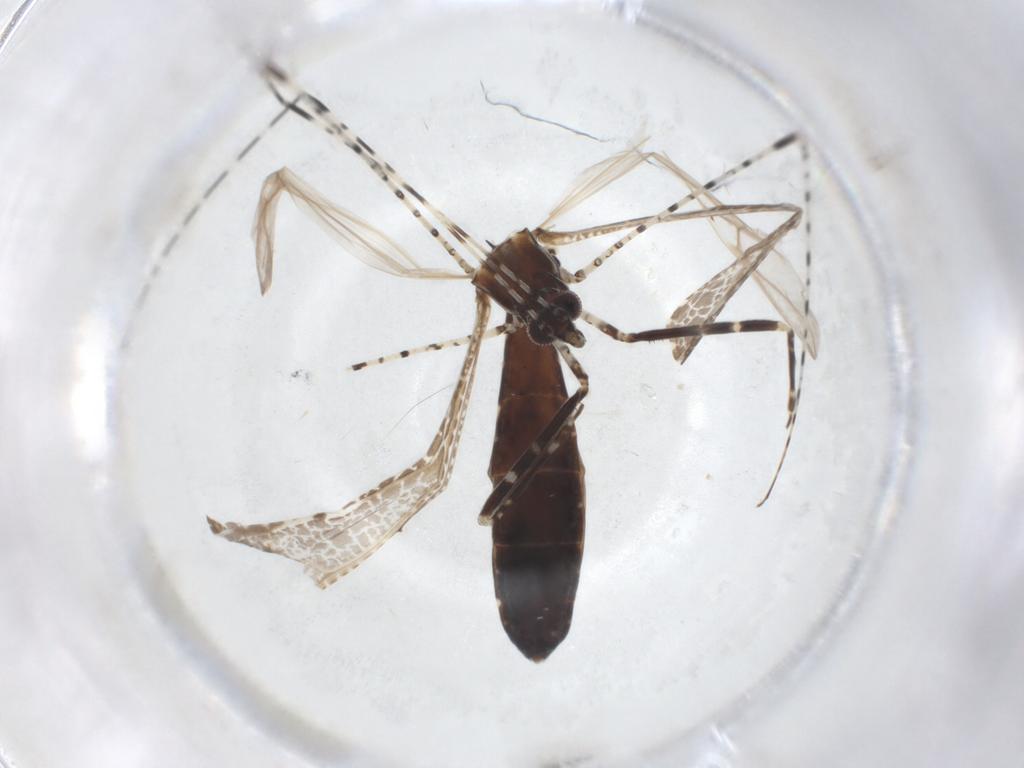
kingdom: Animalia
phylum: Arthropoda
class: Insecta
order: Hemiptera
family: Reduviidae
